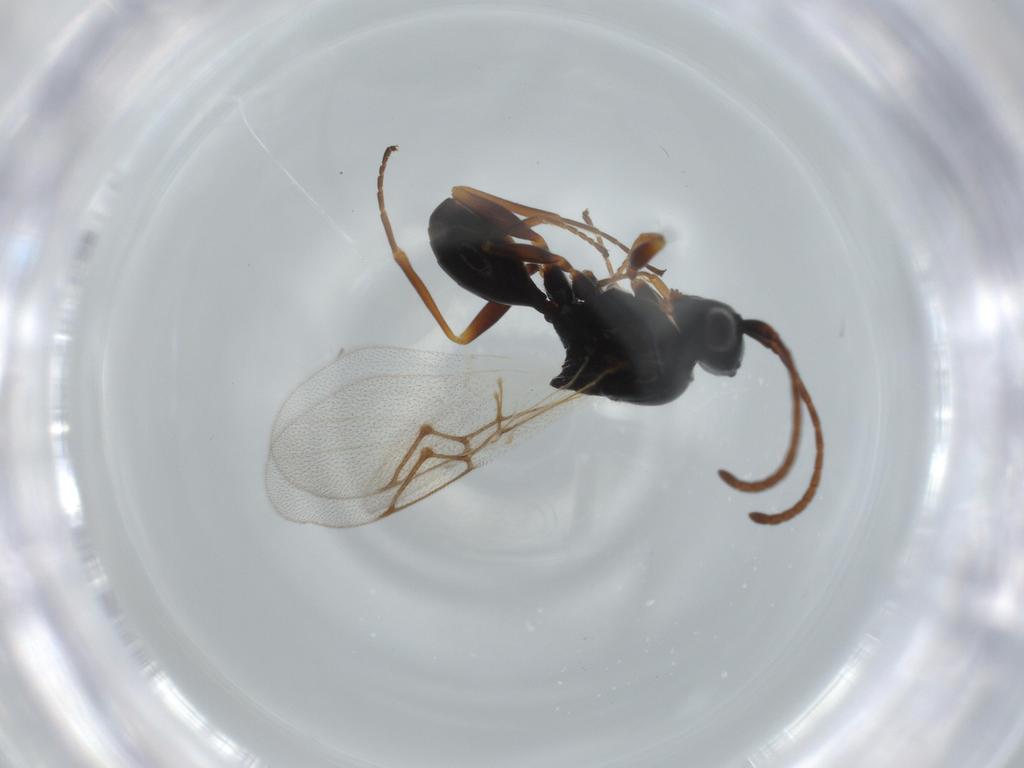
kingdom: Animalia
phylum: Arthropoda
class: Insecta
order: Hymenoptera
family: Figitidae
